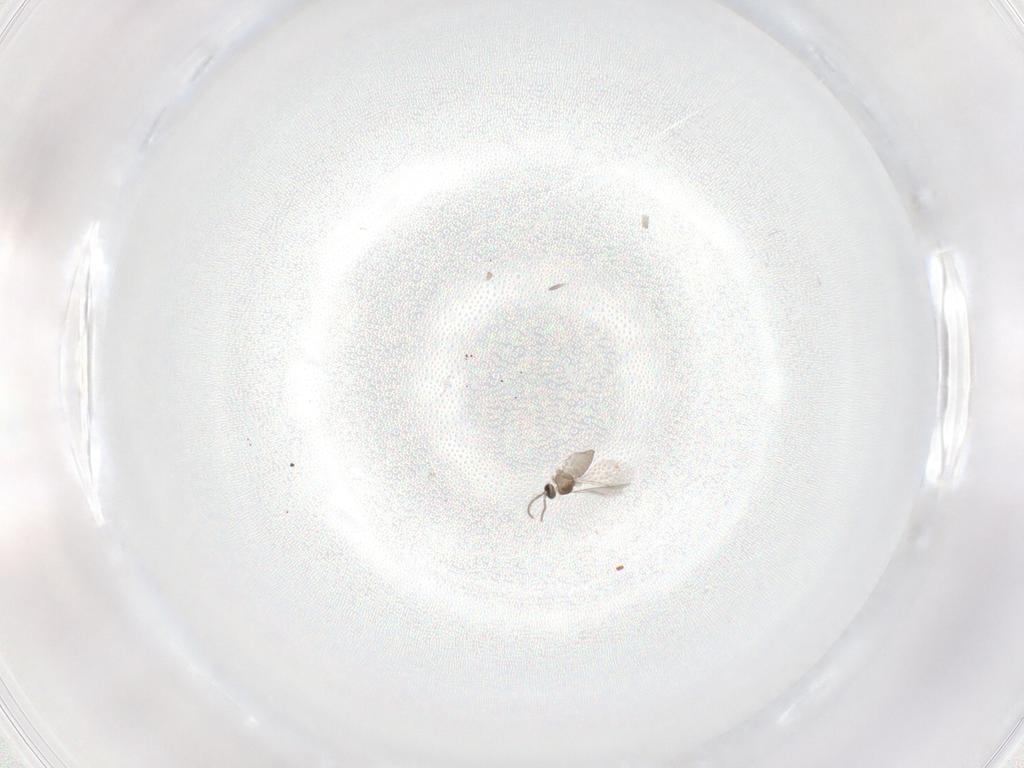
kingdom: Animalia
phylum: Arthropoda
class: Insecta
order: Diptera
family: Cecidomyiidae
